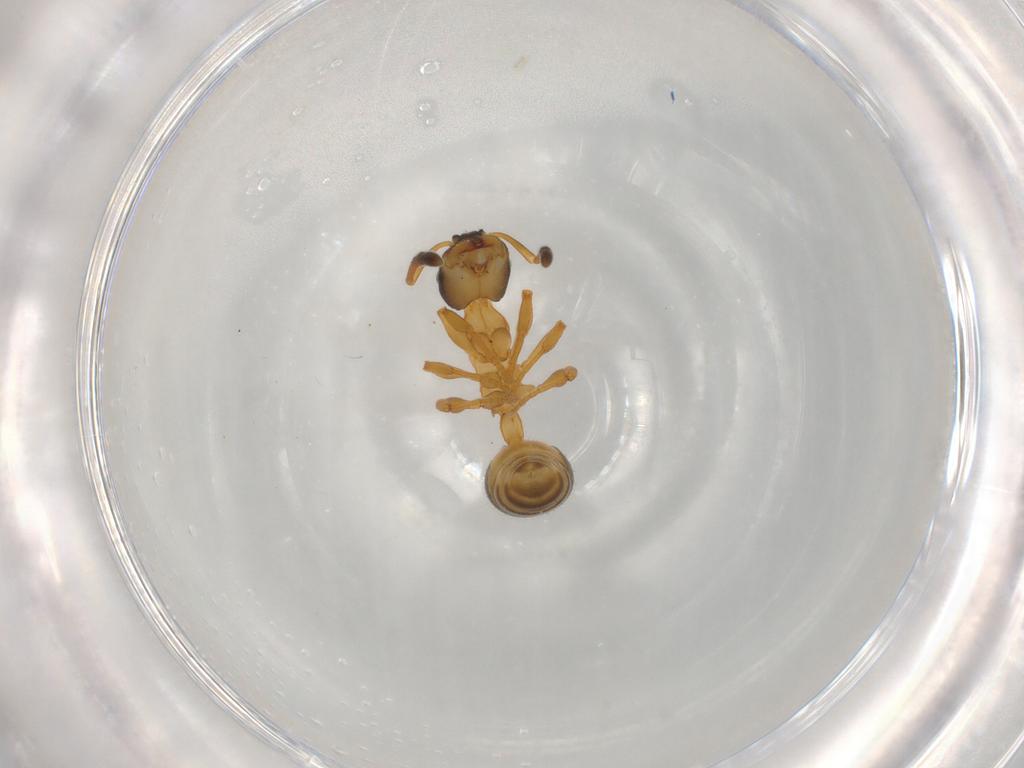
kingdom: Animalia
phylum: Arthropoda
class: Insecta
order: Hymenoptera
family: Formicidae
